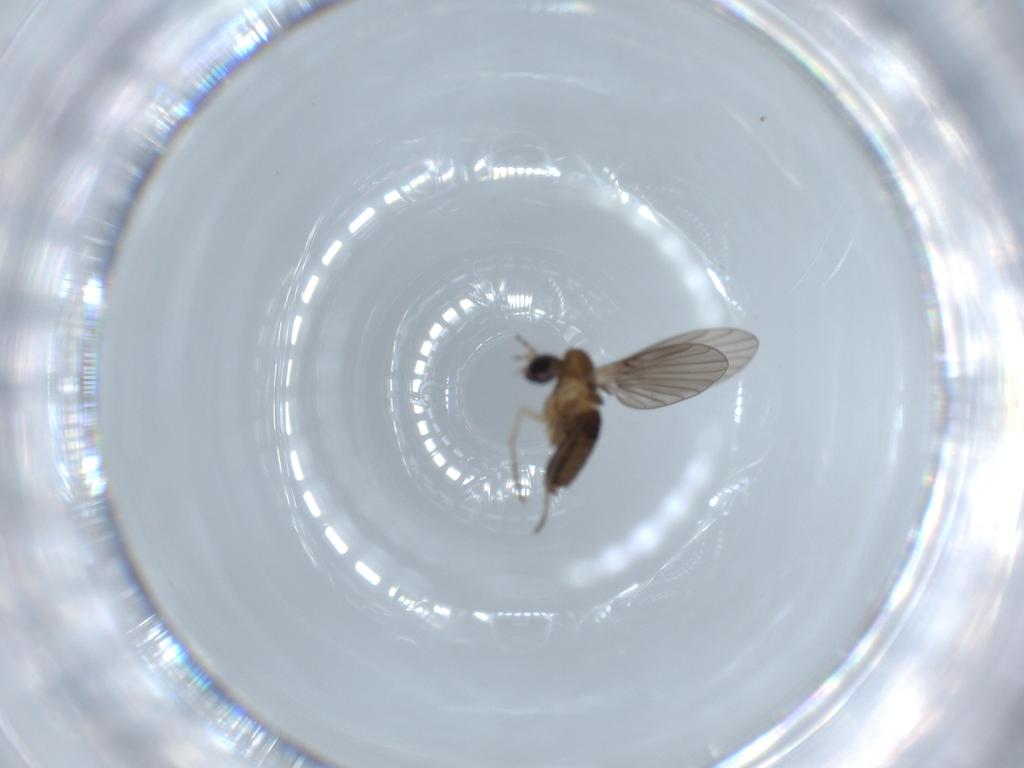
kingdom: Animalia
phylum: Arthropoda
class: Insecta
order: Diptera
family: Psychodidae
